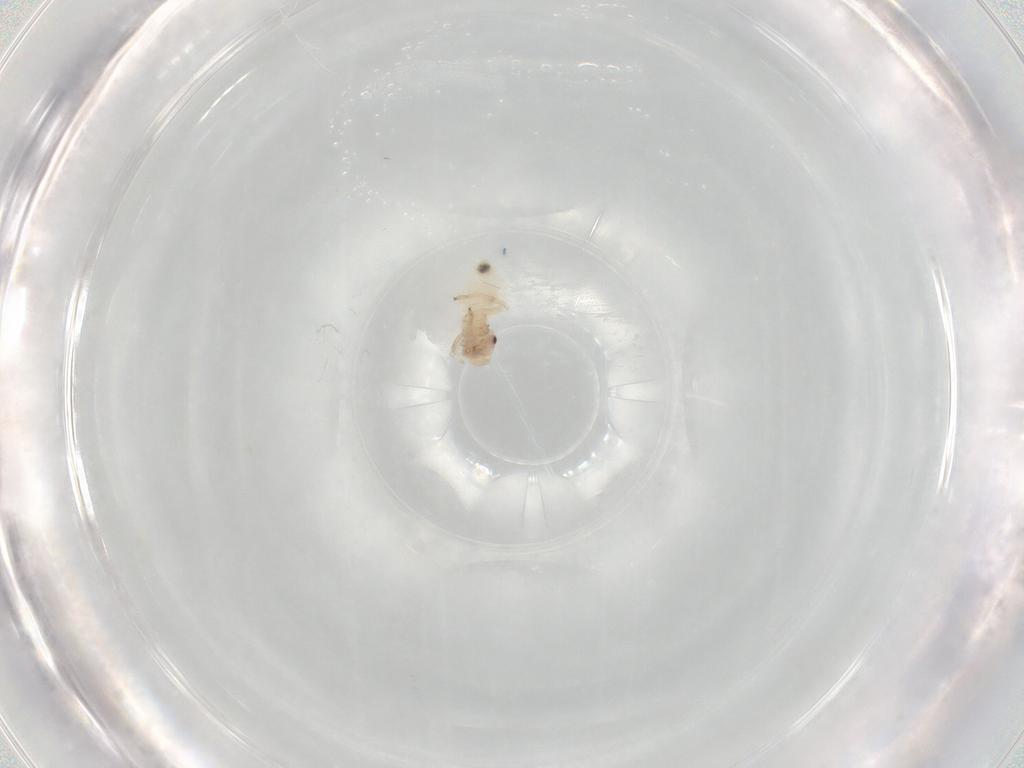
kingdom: Animalia
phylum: Arthropoda
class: Insecta
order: Psocodea
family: Stenopsocidae
